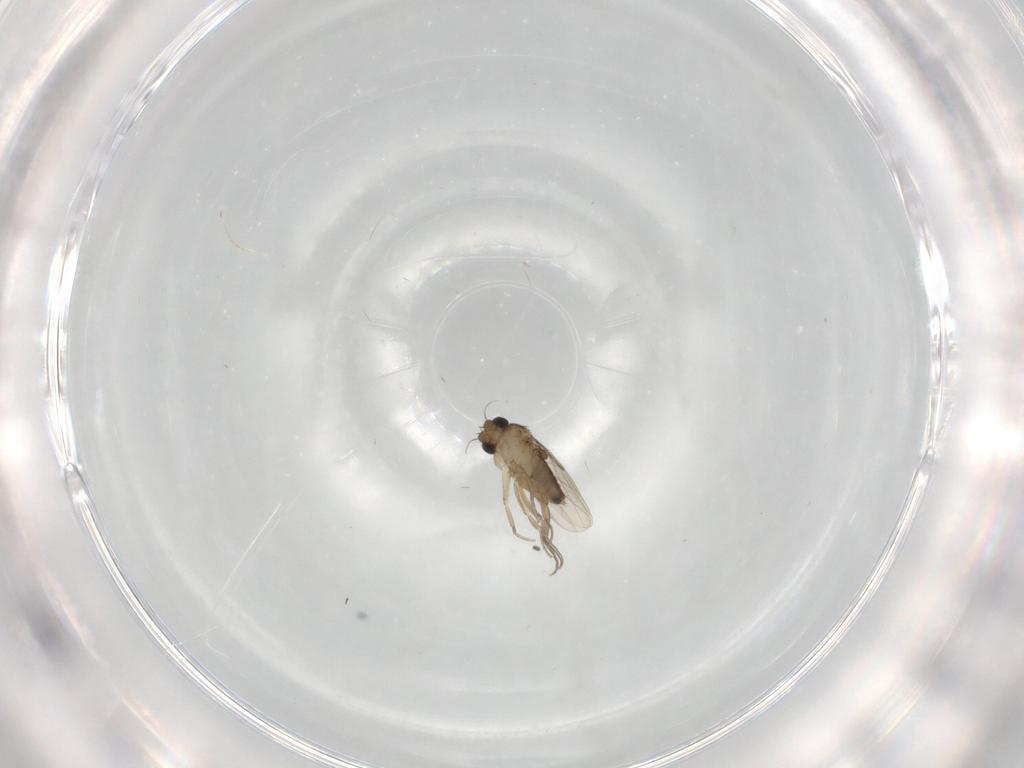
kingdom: Animalia
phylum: Arthropoda
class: Insecta
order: Diptera
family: Phoridae
